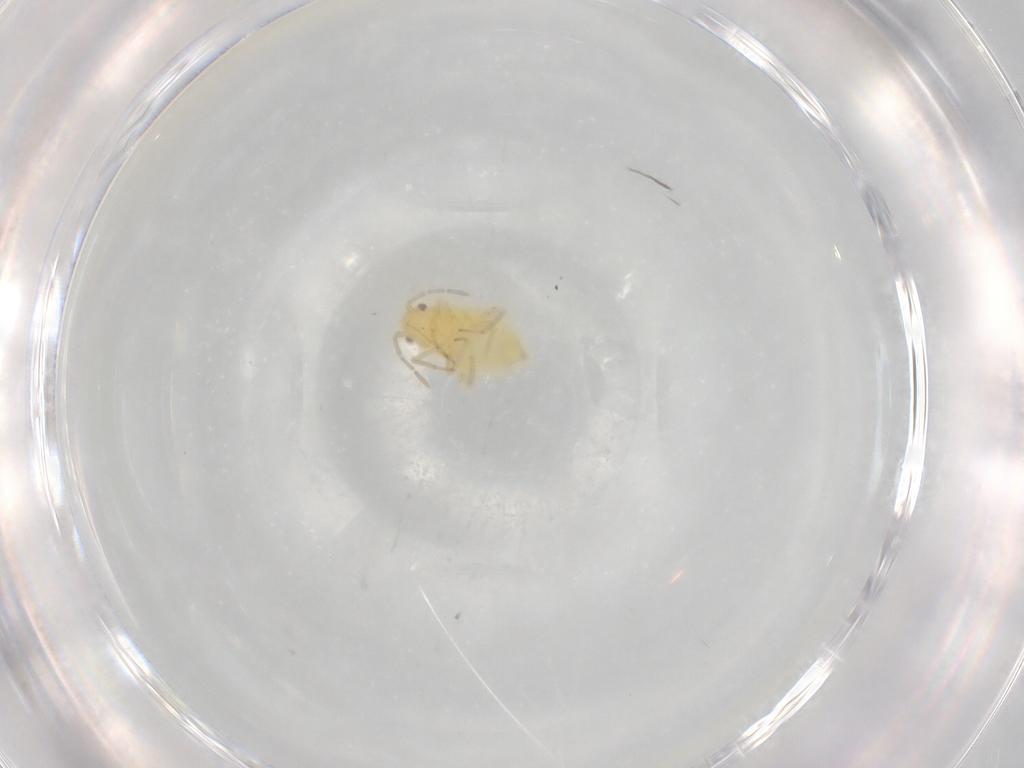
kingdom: Animalia
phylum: Arthropoda
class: Insecta
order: Hemiptera
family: Miridae
